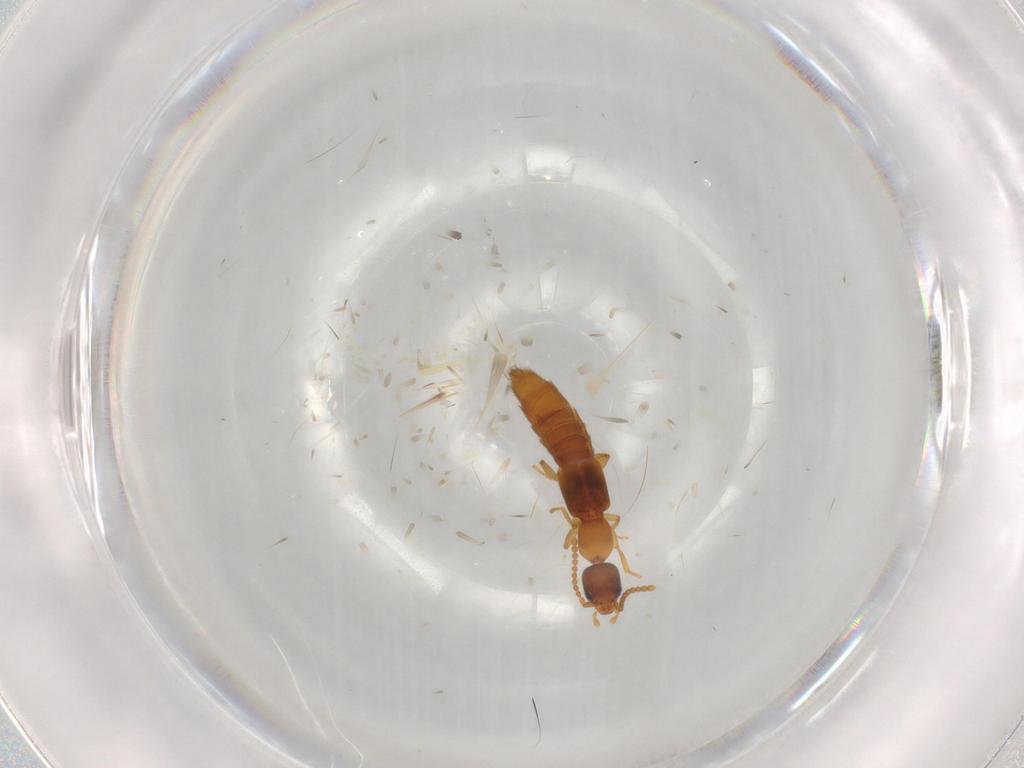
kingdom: Animalia
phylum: Arthropoda
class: Insecta
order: Coleoptera
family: Staphylinidae
